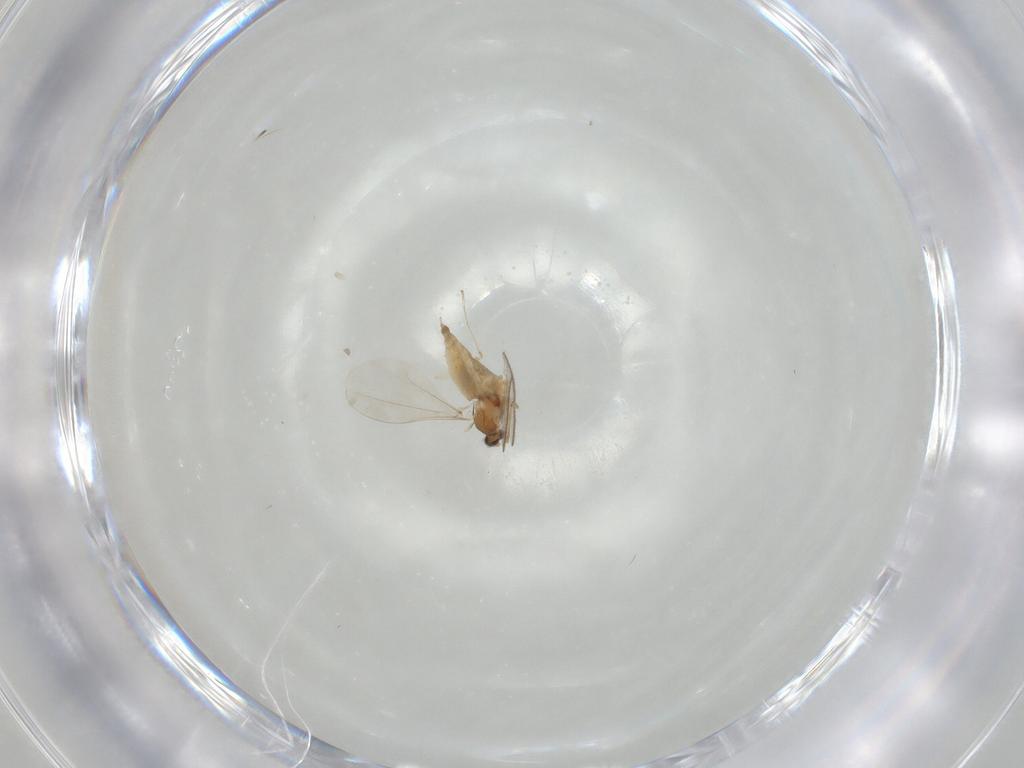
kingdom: Animalia
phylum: Arthropoda
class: Insecta
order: Diptera
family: Sciaridae
